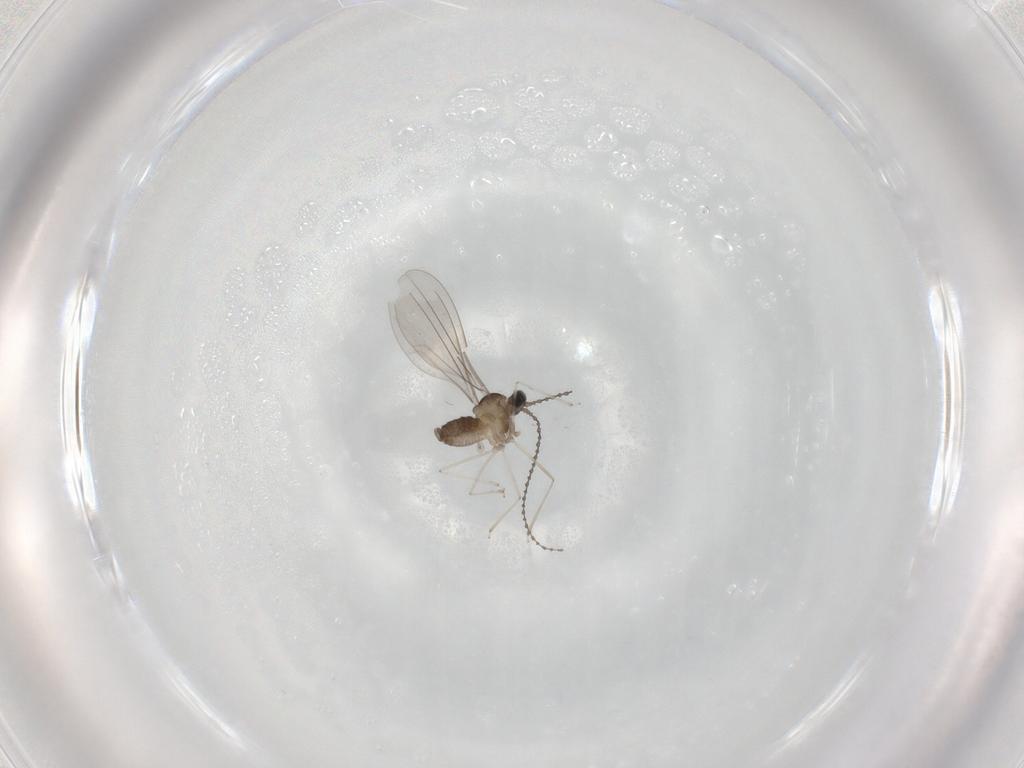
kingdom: Animalia
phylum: Arthropoda
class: Insecta
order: Diptera
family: Cecidomyiidae
